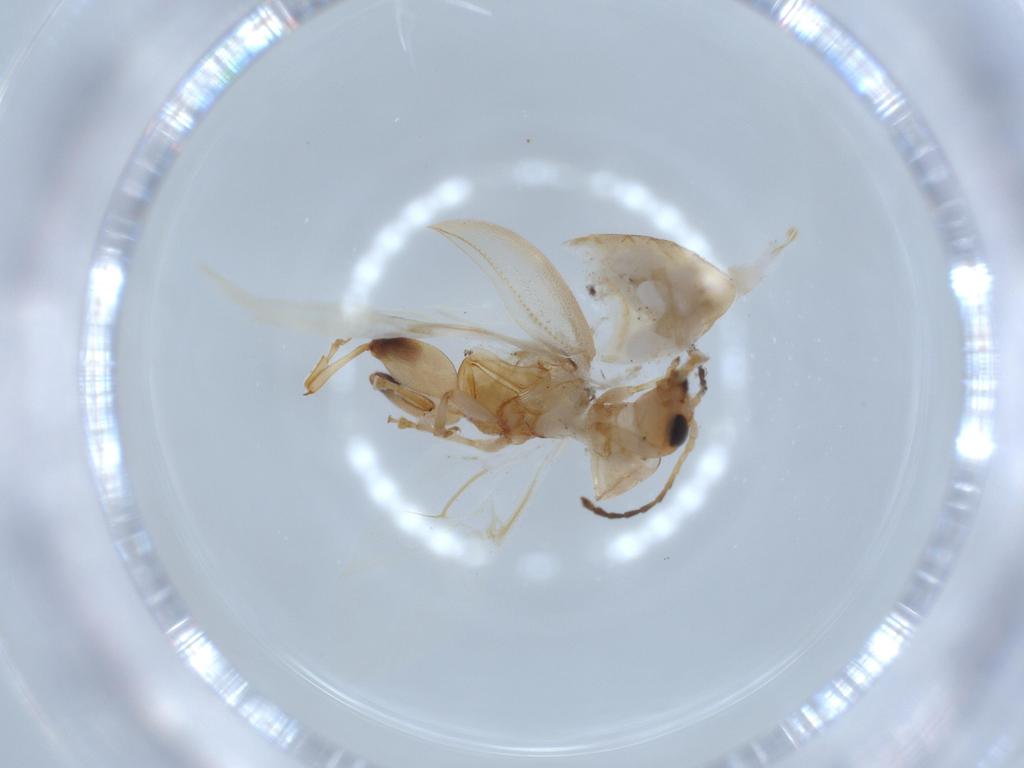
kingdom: Animalia
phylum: Arthropoda
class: Insecta
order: Coleoptera
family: Chrysomelidae
